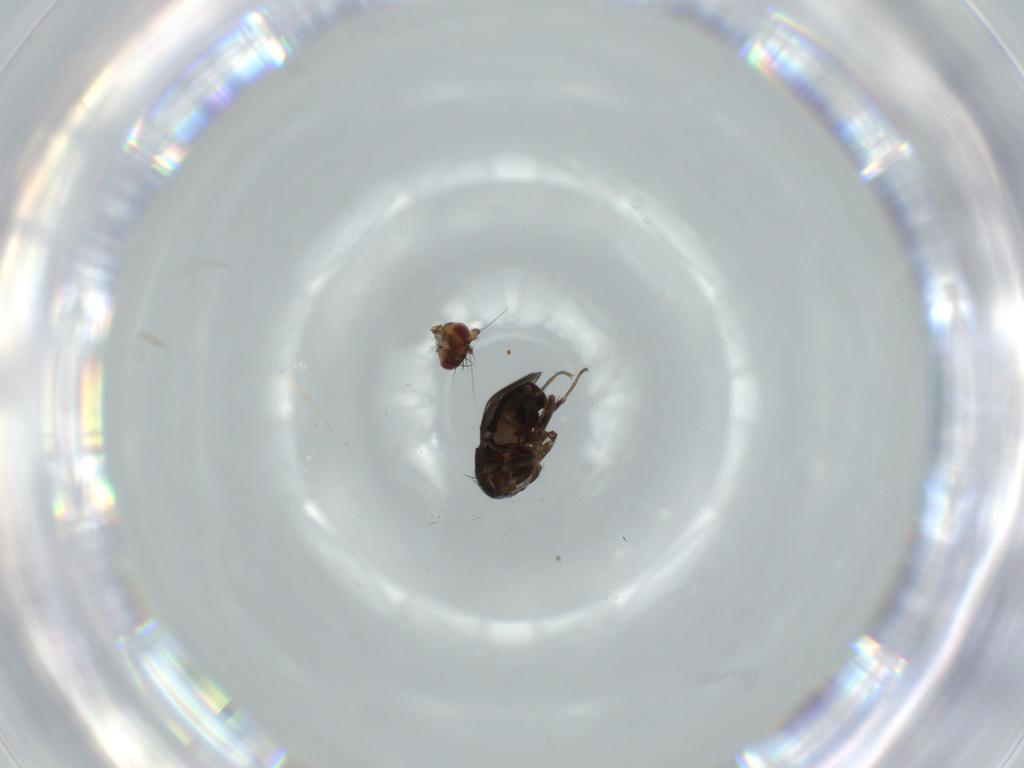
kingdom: Animalia
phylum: Arthropoda
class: Insecta
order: Diptera
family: Sphaeroceridae
